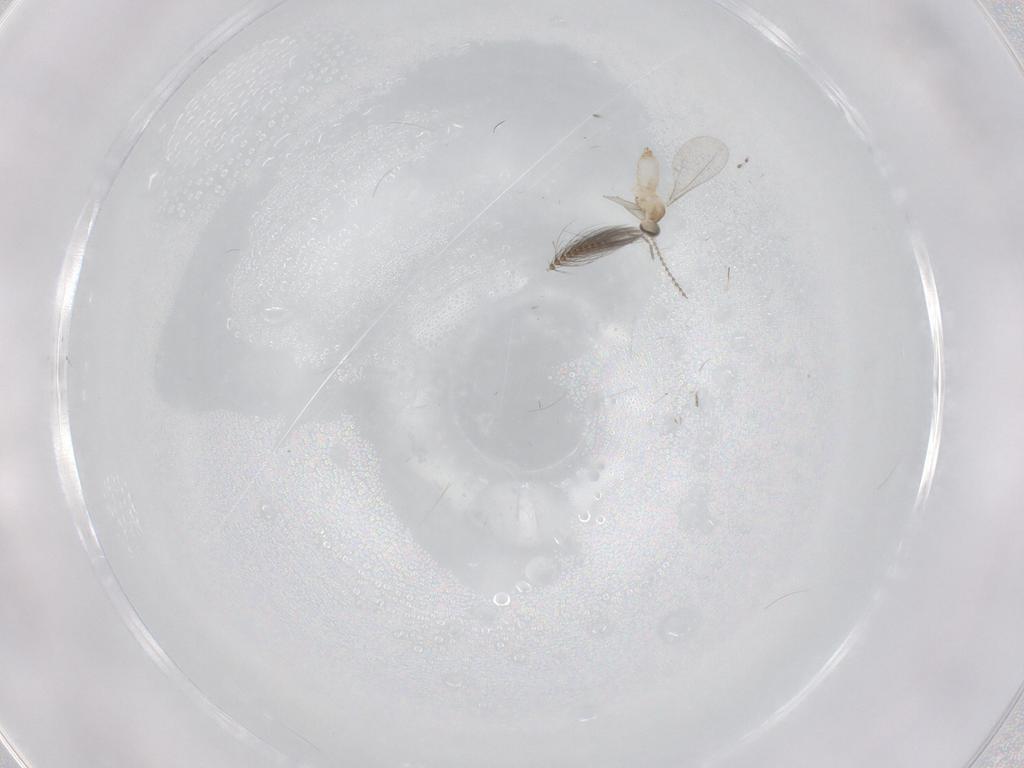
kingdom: Animalia
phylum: Arthropoda
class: Insecta
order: Diptera
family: Cecidomyiidae
